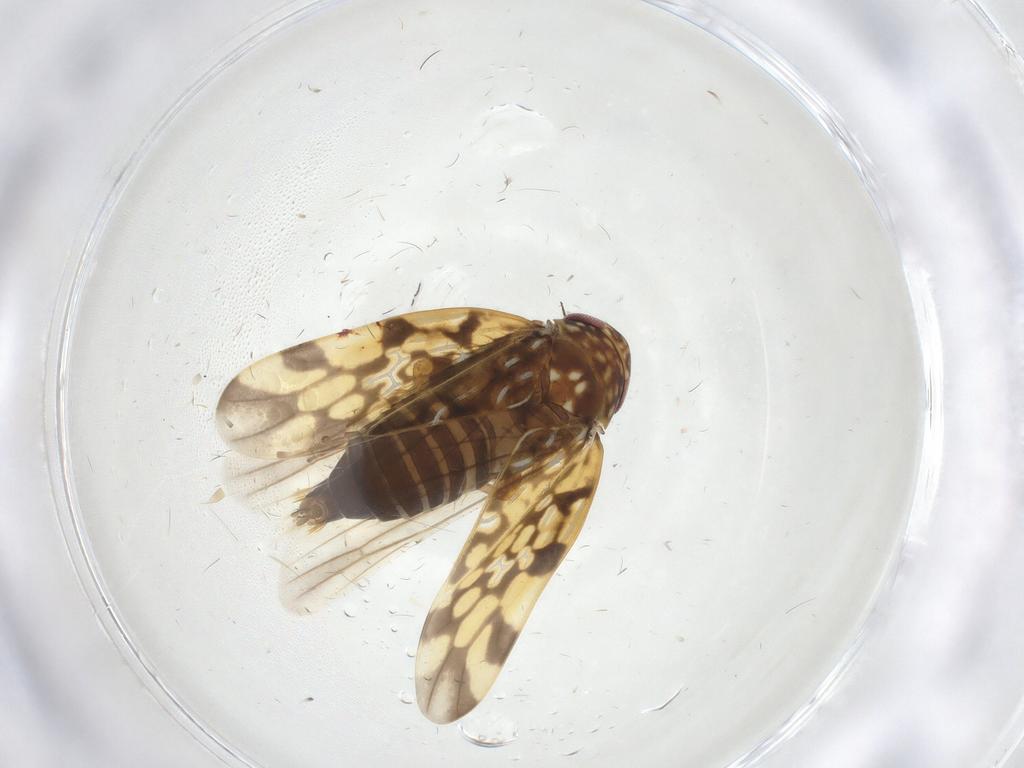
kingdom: Animalia
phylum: Arthropoda
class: Insecta
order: Hemiptera
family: Cicadellidae
